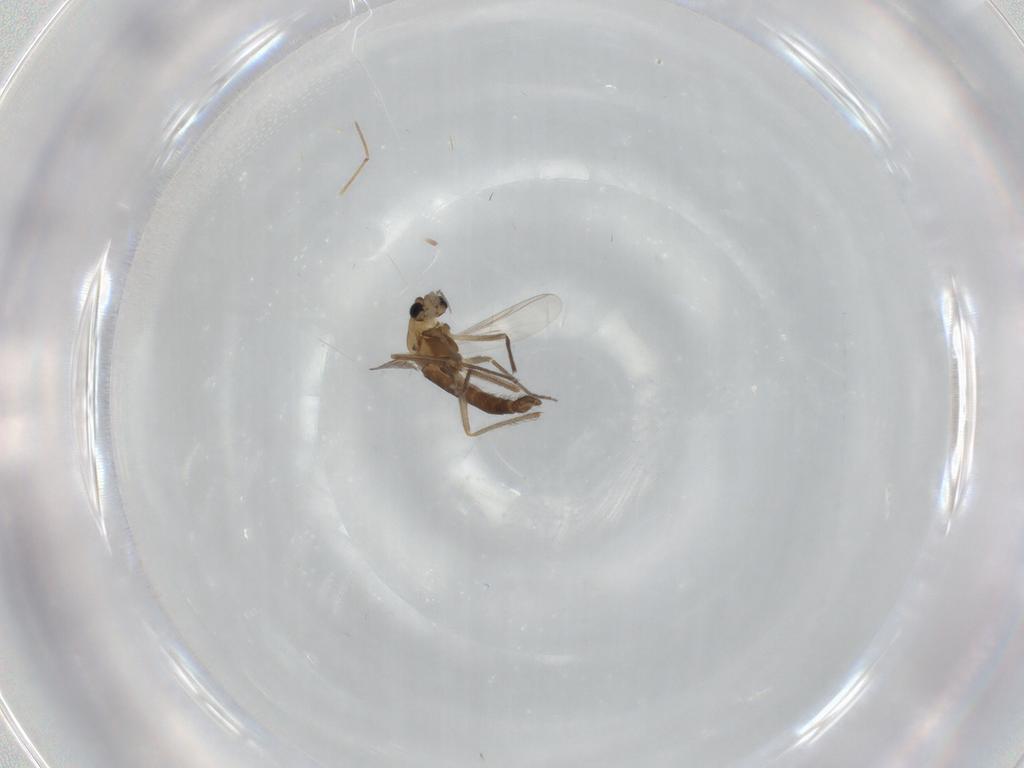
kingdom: Animalia
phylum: Arthropoda
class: Insecta
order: Diptera
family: Chironomidae
